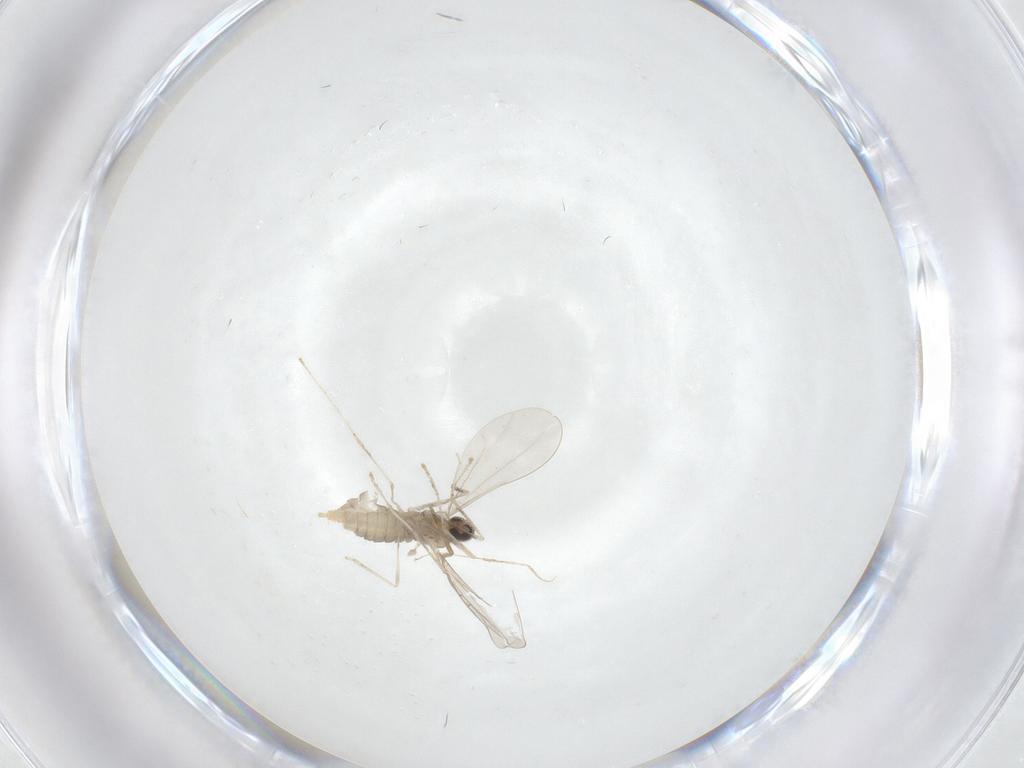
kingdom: Animalia
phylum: Arthropoda
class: Insecta
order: Diptera
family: Cecidomyiidae
